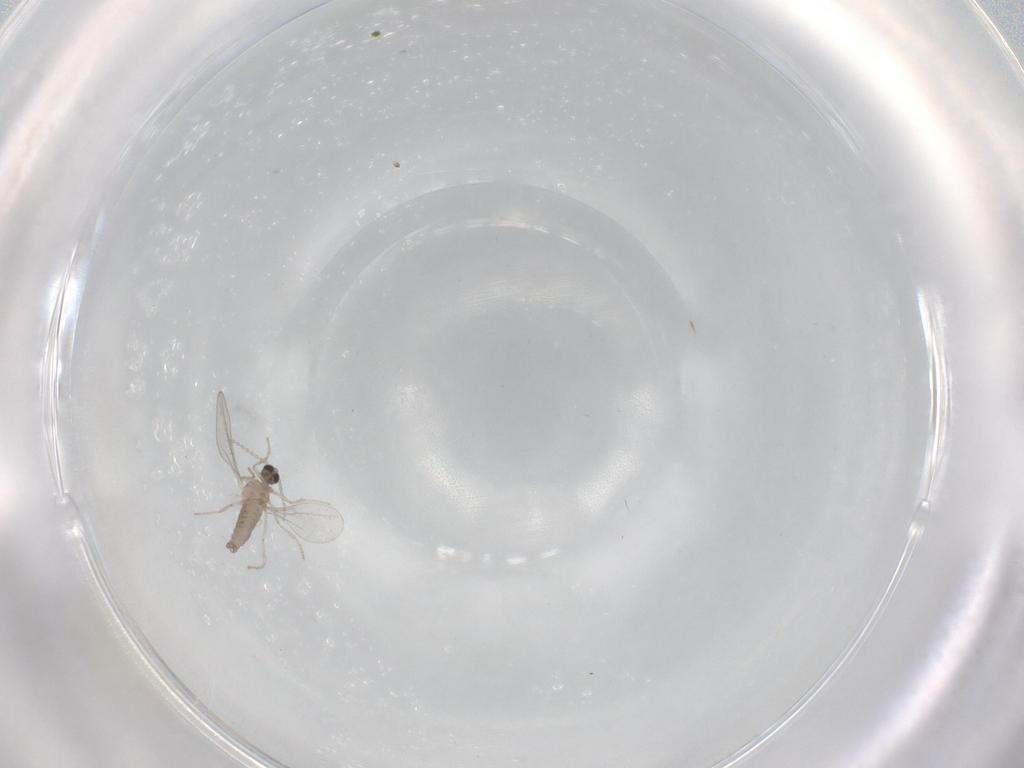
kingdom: Animalia
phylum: Arthropoda
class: Insecta
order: Diptera
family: Cecidomyiidae
